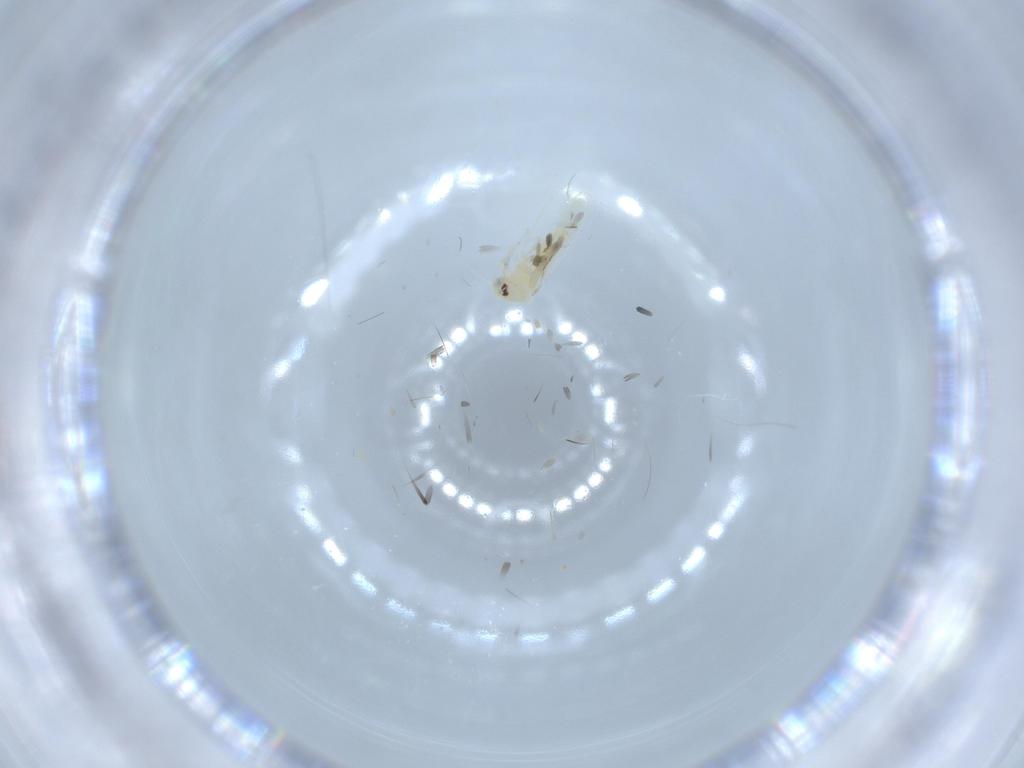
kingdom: Animalia
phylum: Arthropoda
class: Insecta
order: Hemiptera
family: Aleyrodidae
